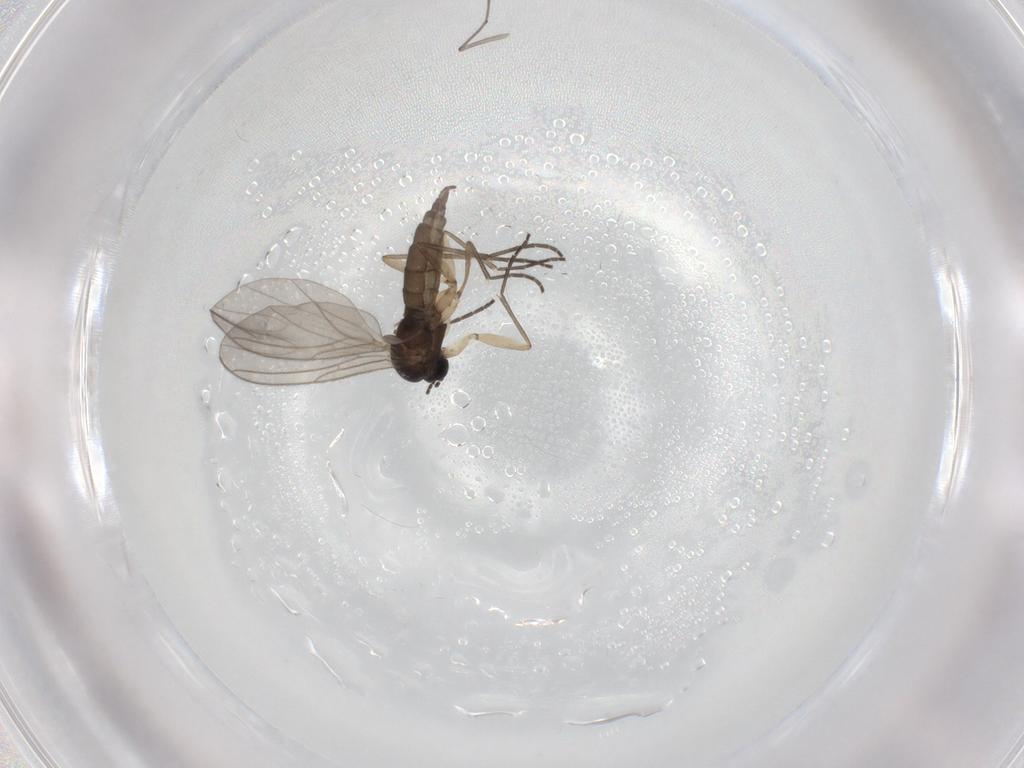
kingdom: Animalia
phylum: Arthropoda
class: Insecta
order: Diptera
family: Sciaridae
